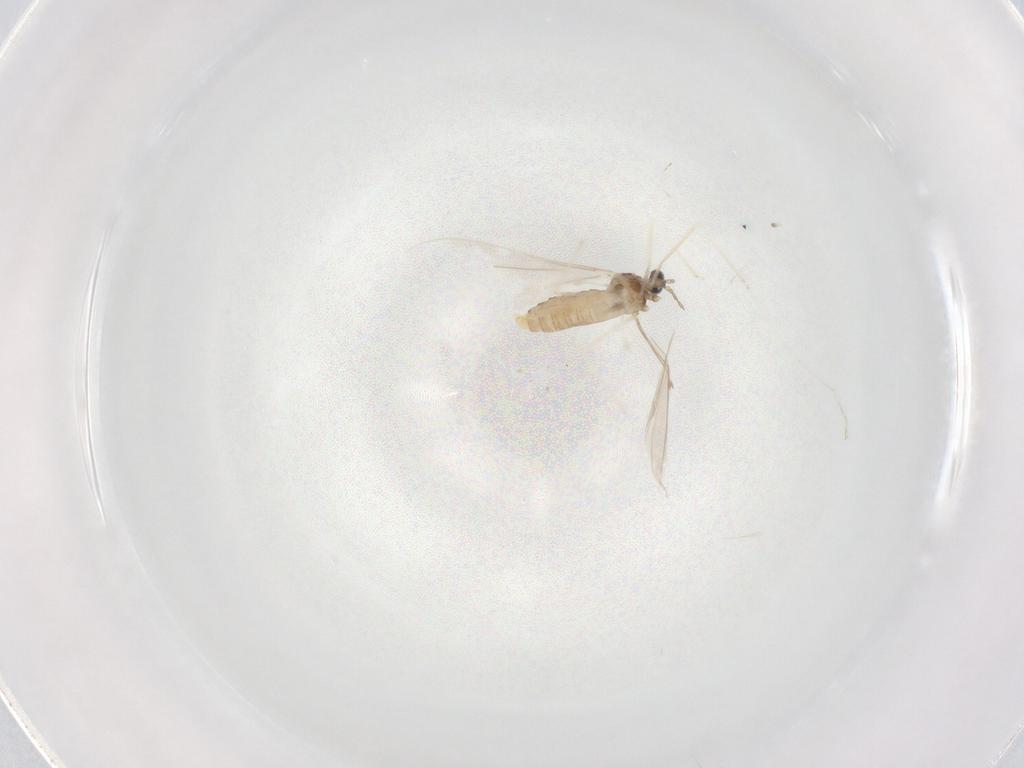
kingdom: Animalia
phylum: Arthropoda
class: Insecta
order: Diptera
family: Cecidomyiidae
